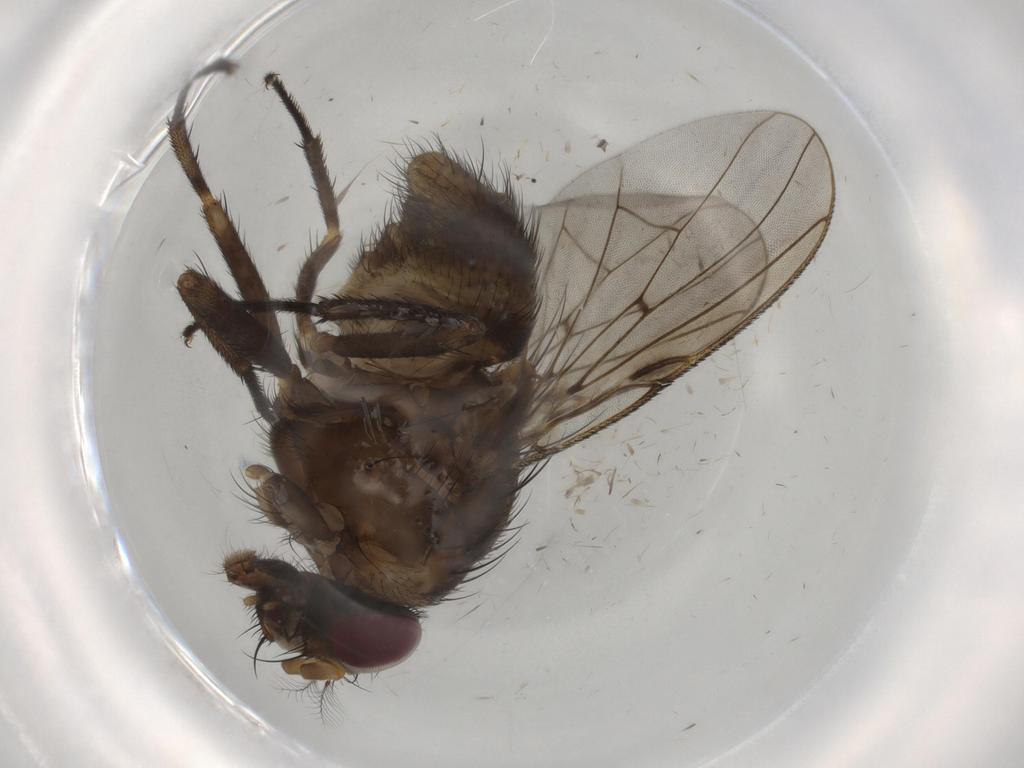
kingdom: Animalia
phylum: Arthropoda
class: Insecta
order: Diptera
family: Muscidae
